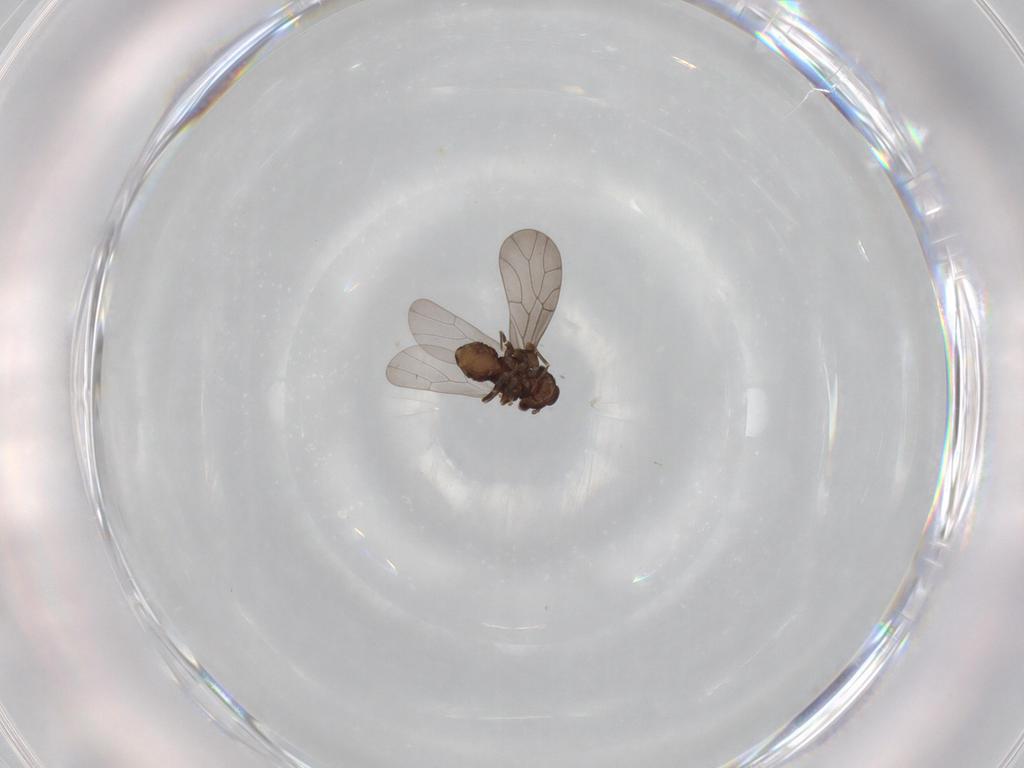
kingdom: Animalia
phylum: Arthropoda
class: Insecta
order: Psocodea
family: Lepidopsocidae
